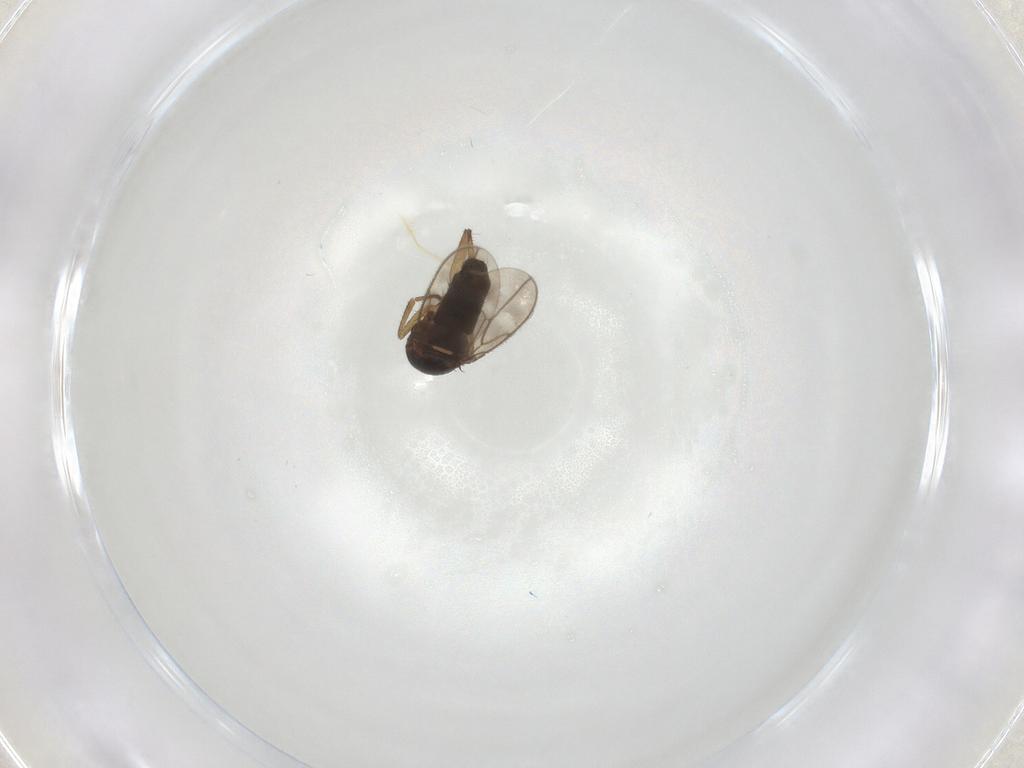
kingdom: Animalia
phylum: Arthropoda
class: Insecta
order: Diptera
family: Sphaeroceridae
